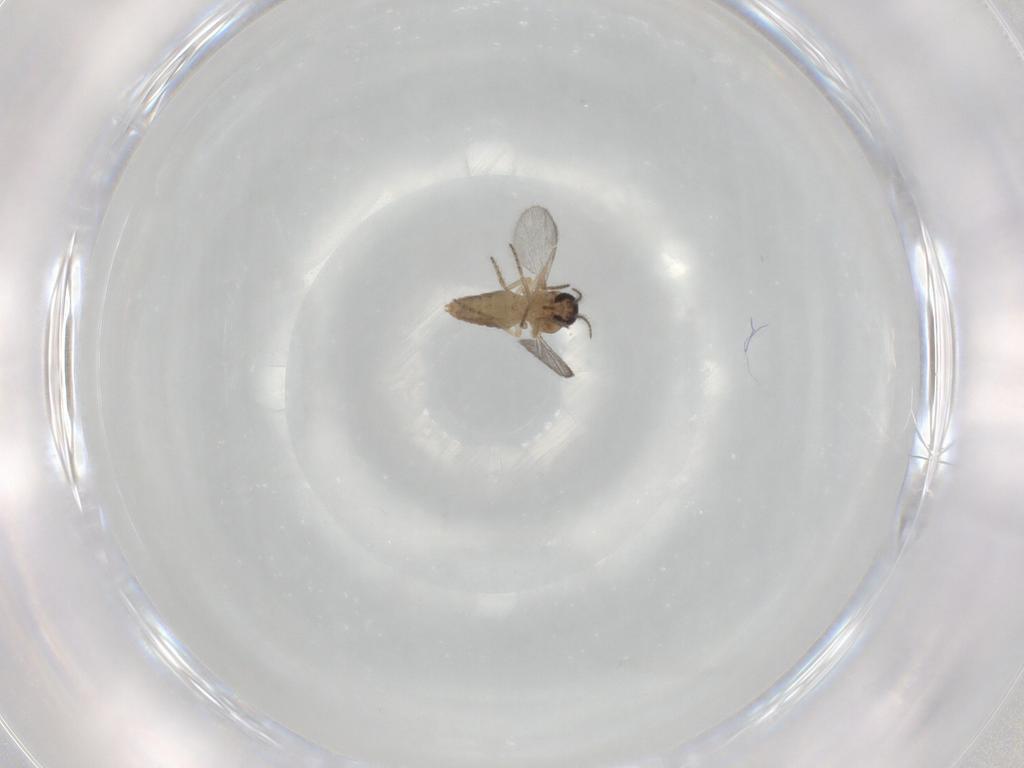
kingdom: Animalia
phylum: Arthropoda
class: Insecta
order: Diptera
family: Ceratopogonidae
